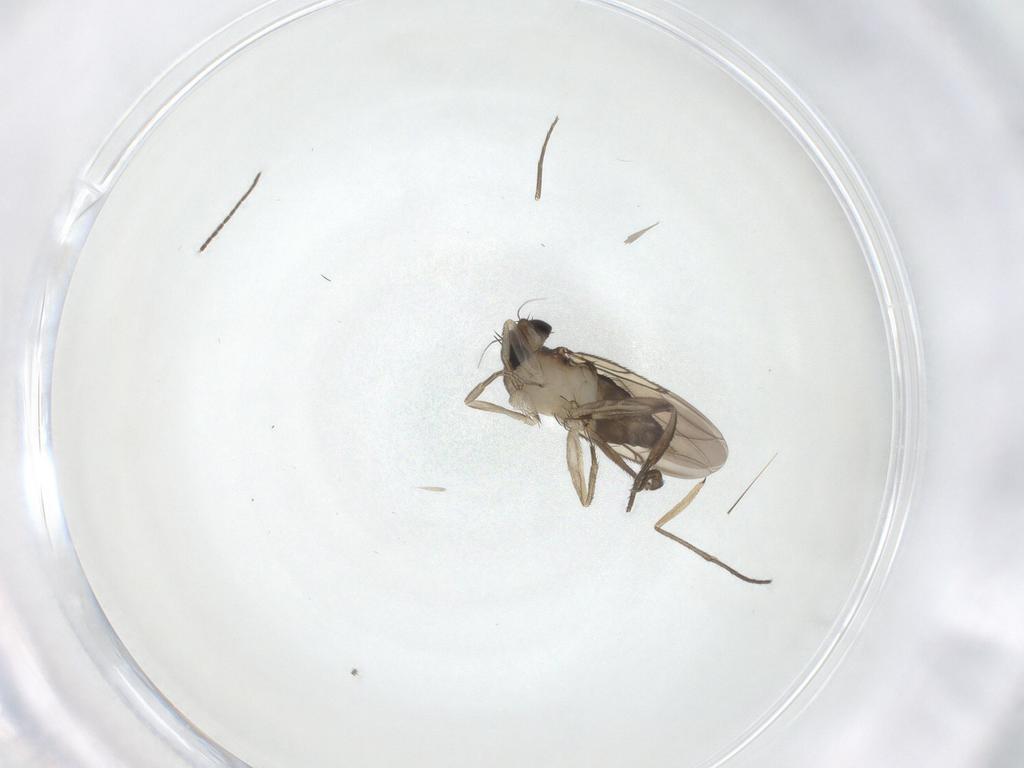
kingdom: Animalia
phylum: Arthropoda
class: Insecta
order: Diptera
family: Phoridae
